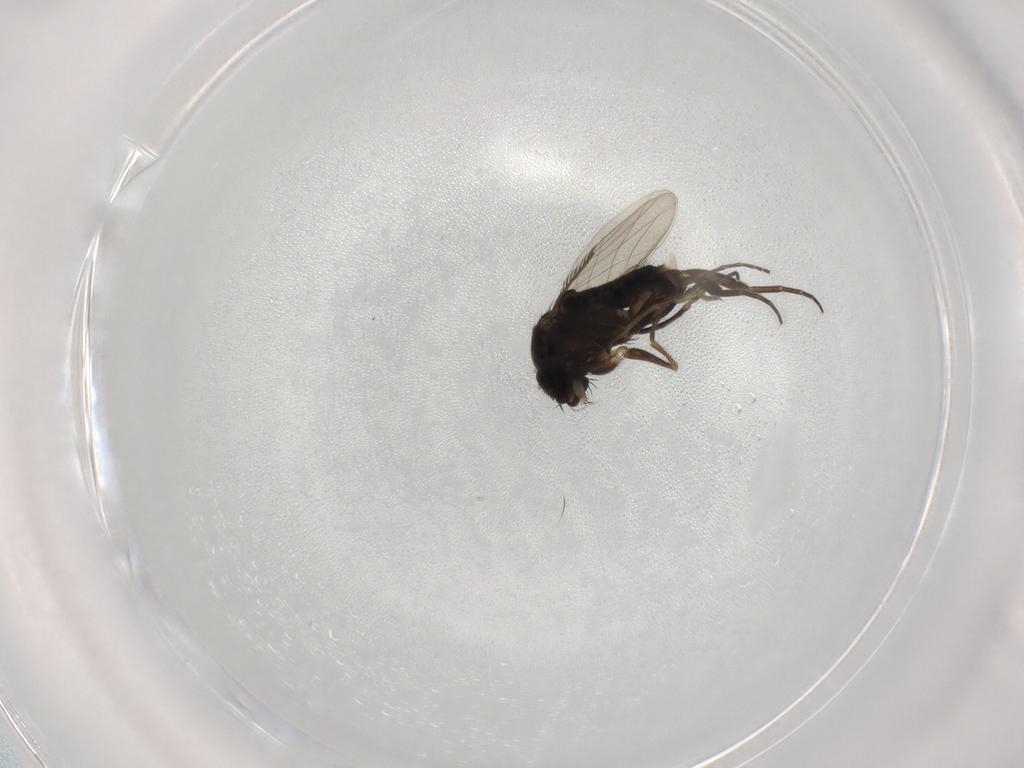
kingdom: Animalia
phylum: Arthropoda
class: Insecta
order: Diptera
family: Phoridae
